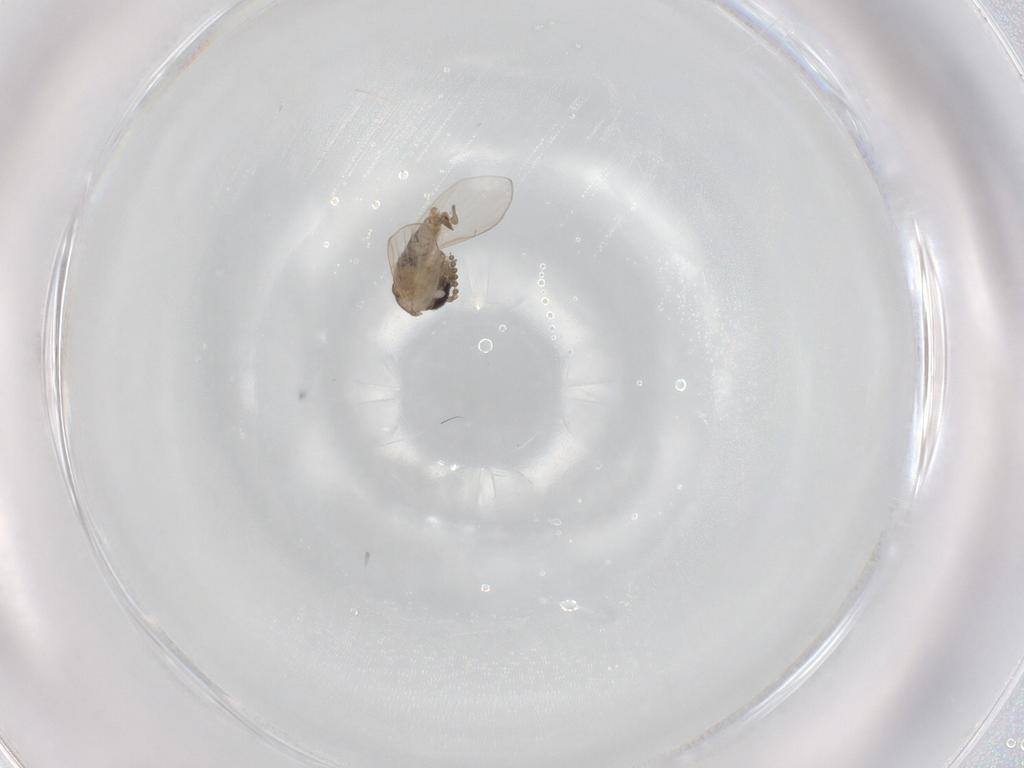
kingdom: Animalia
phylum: Arthropoda
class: Insecta
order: Diptera
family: Psychodidae
